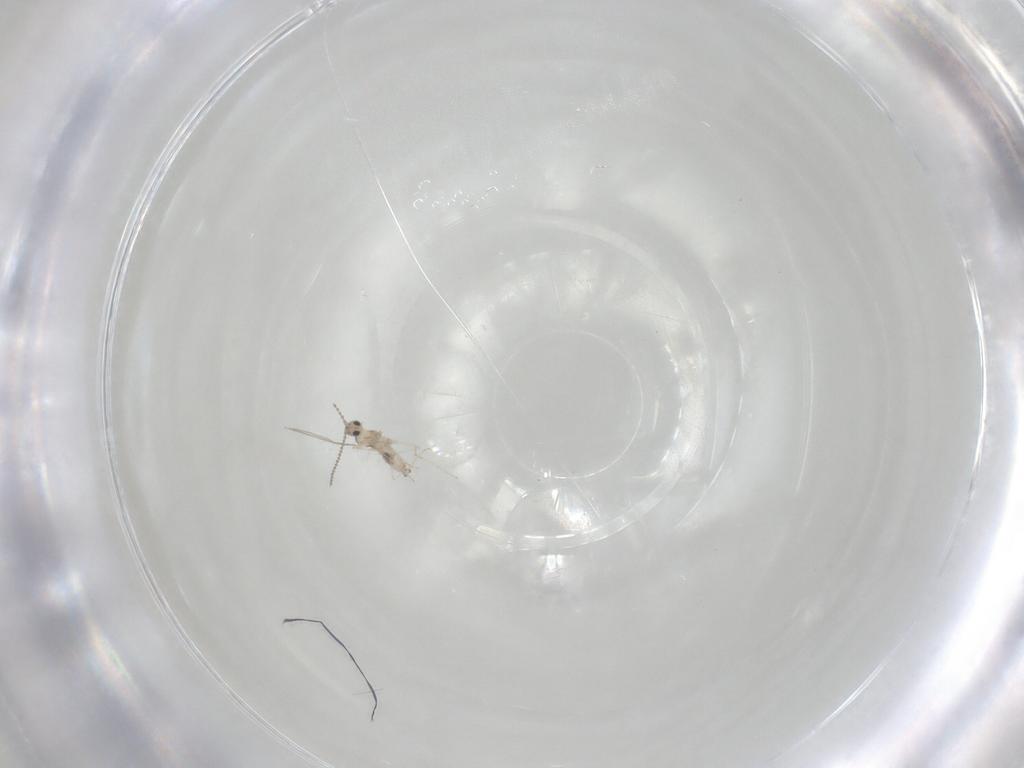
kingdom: Animalia
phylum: Arthropoda
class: Insecta
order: Diptera
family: Cecidomyiidae
